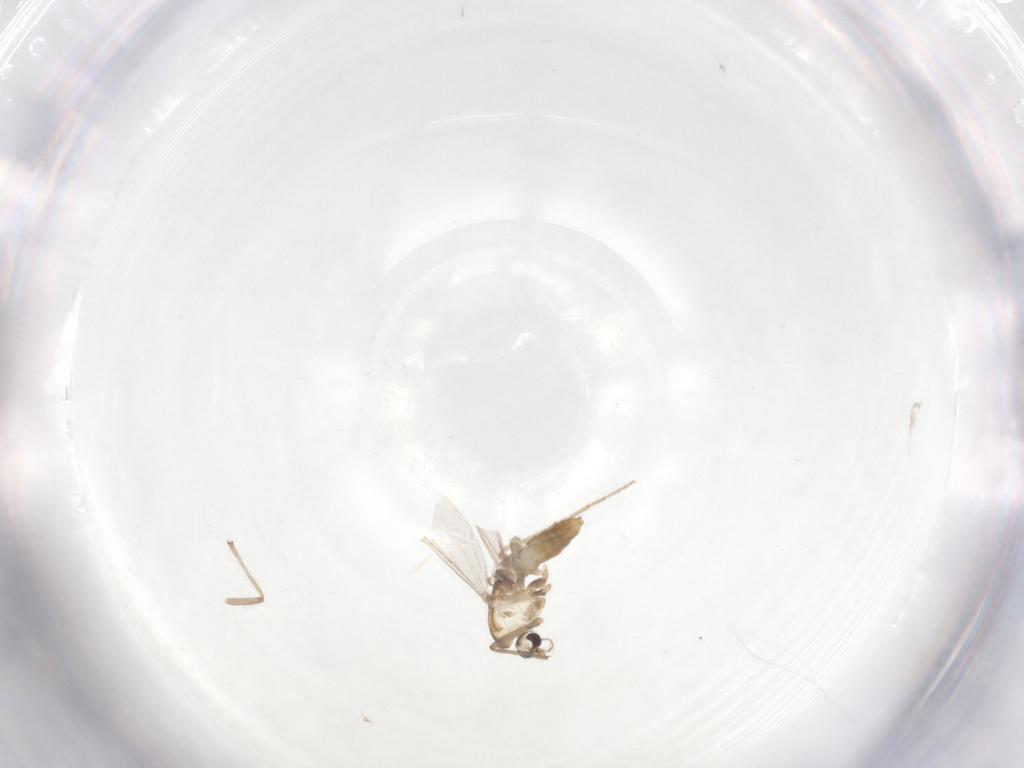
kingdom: Animalia
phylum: Arthropoda
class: Insecta
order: Diptera
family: Chironomidae
